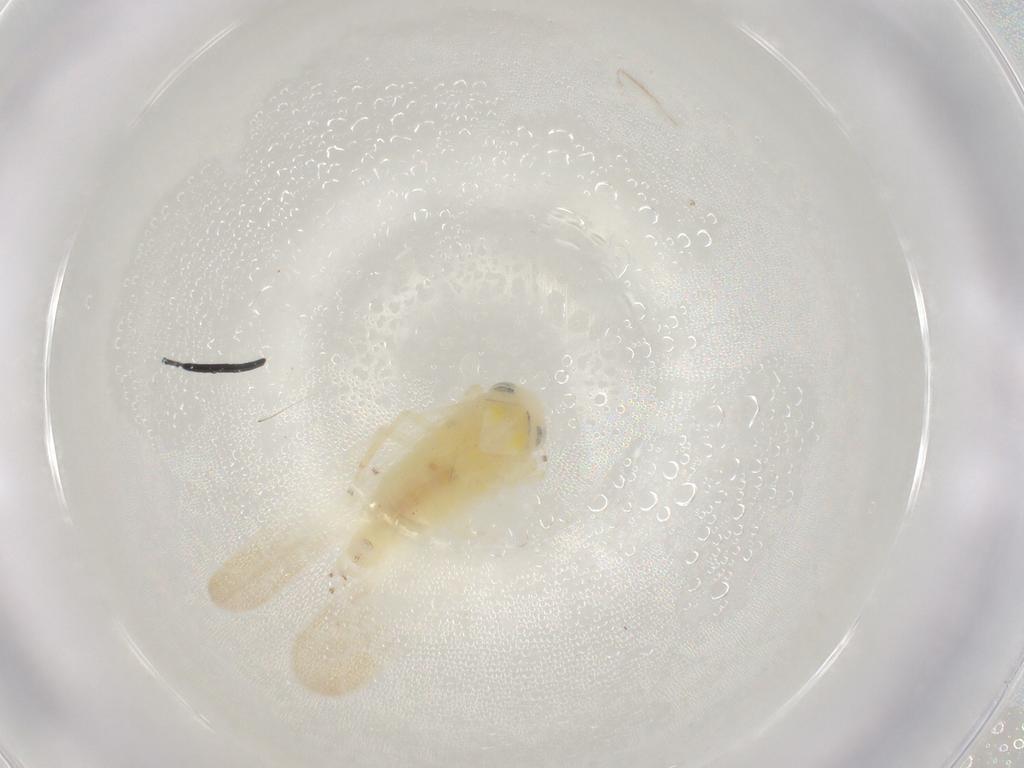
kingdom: Animalia
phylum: Arthropoda
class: Insecta
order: Hemiptera
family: Cicadellidae
